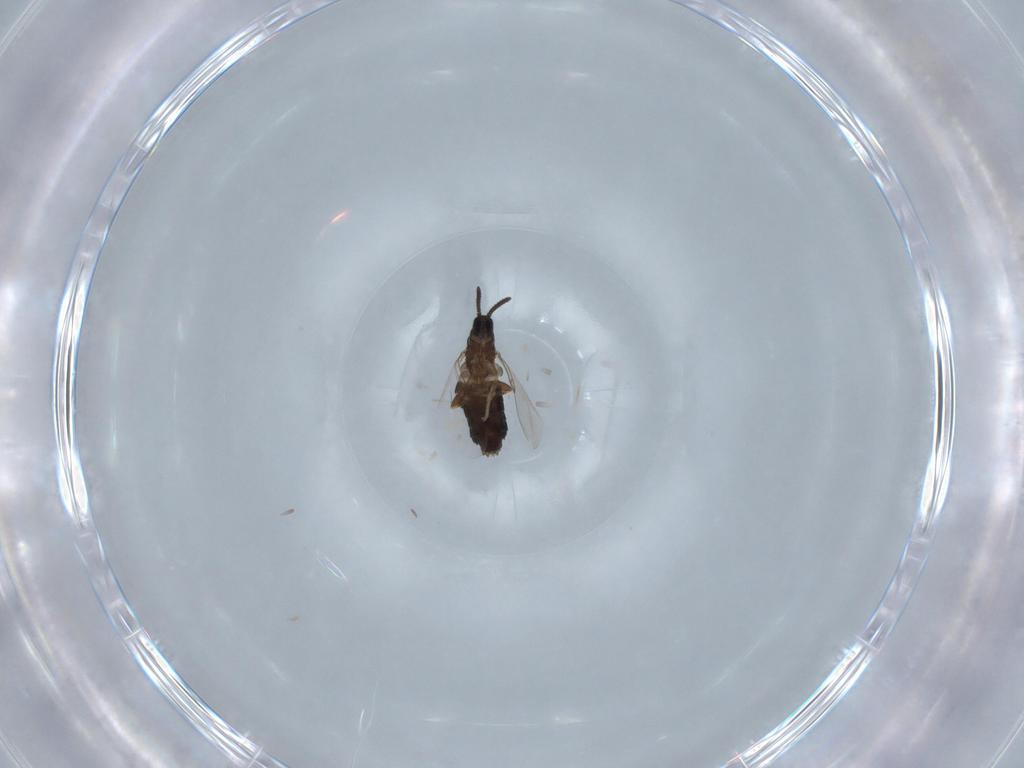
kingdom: Animalia
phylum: Arthropoda
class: Insecta
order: Diptera
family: Scatopsidae
